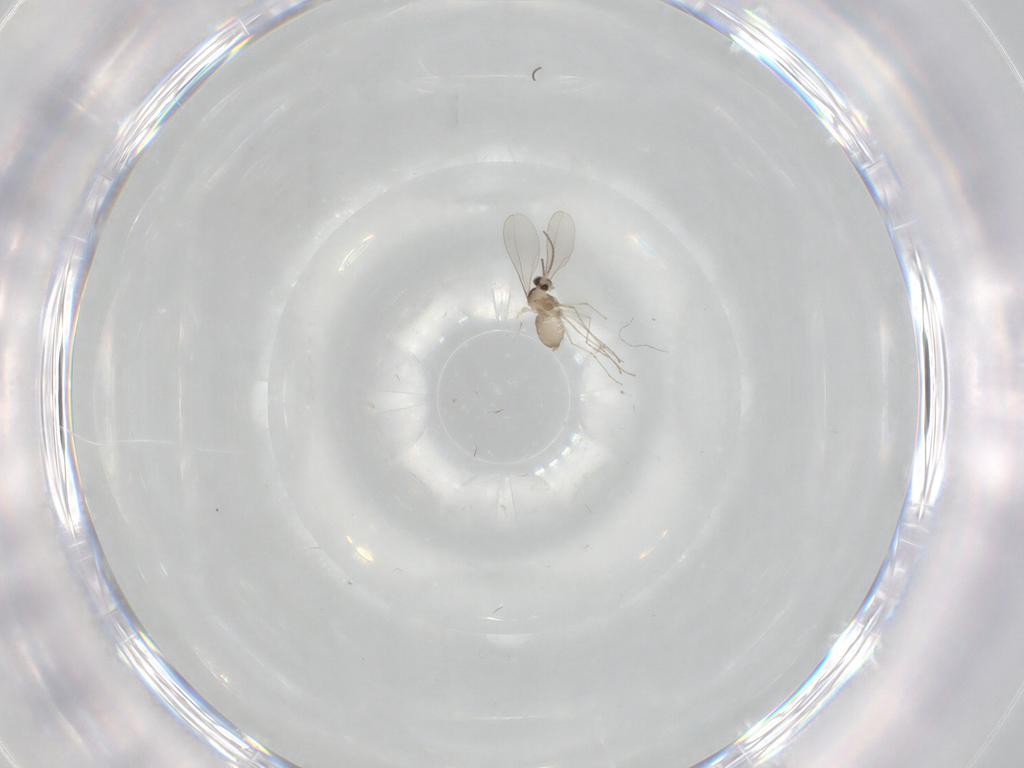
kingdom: Animalia
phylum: Arthropoda
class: Insecta
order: Diptera
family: Cecidomyiidae
